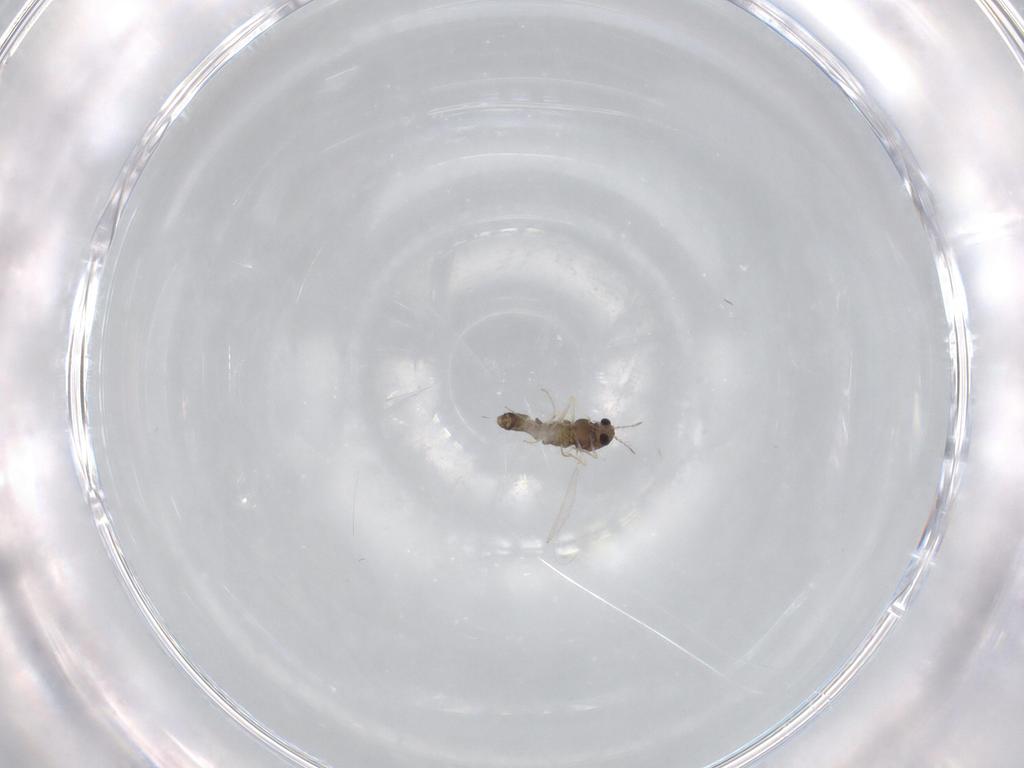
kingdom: Animalia
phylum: Arthropoda
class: Insecta
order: Diptera
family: Chironomidae
